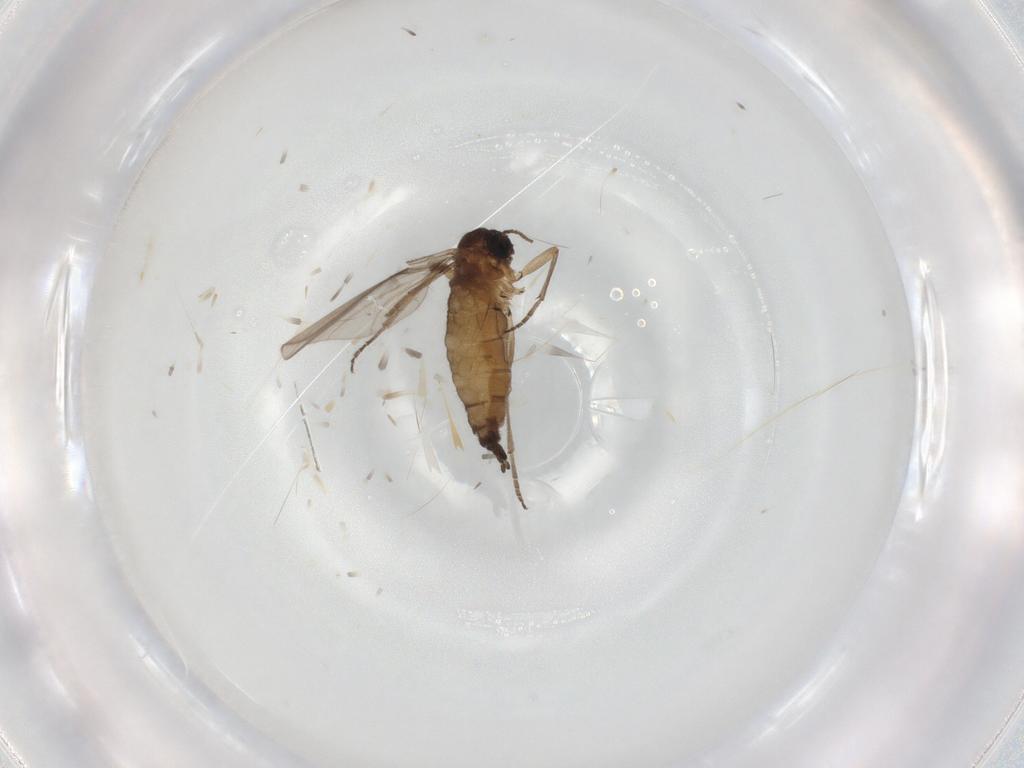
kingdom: Animalia
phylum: Arthropoda
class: Insecta
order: Diptera
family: Sciaridae
